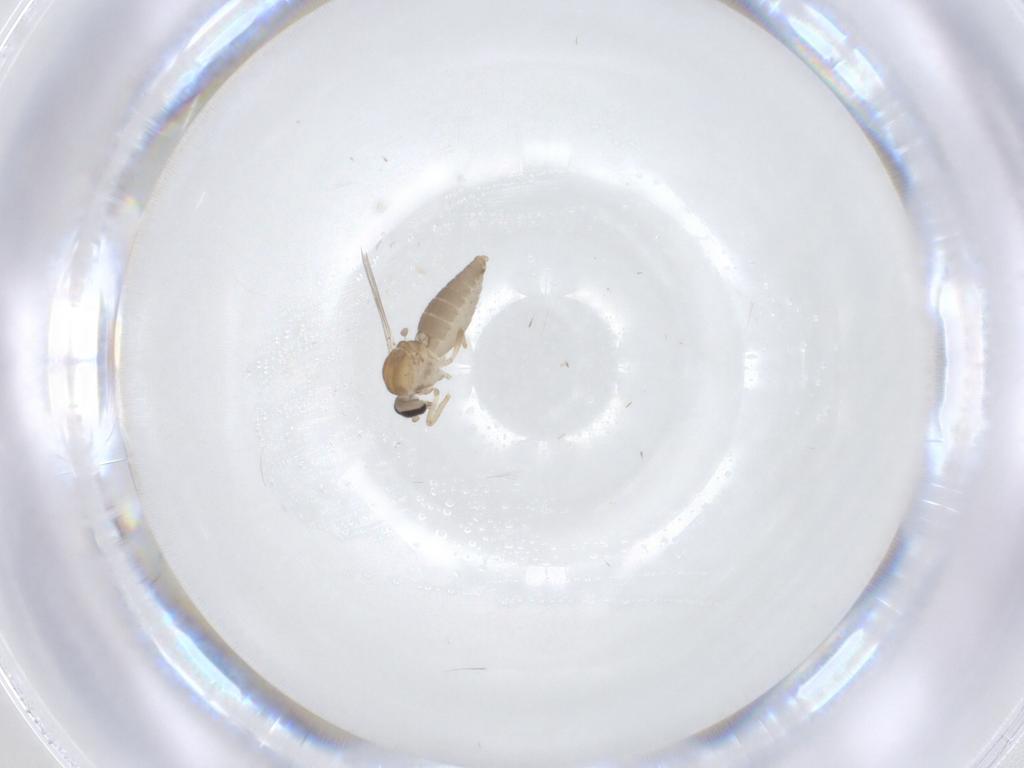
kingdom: Animalia
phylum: Arthropoda
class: Insecta
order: Diptera
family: Ceratopogonidae
